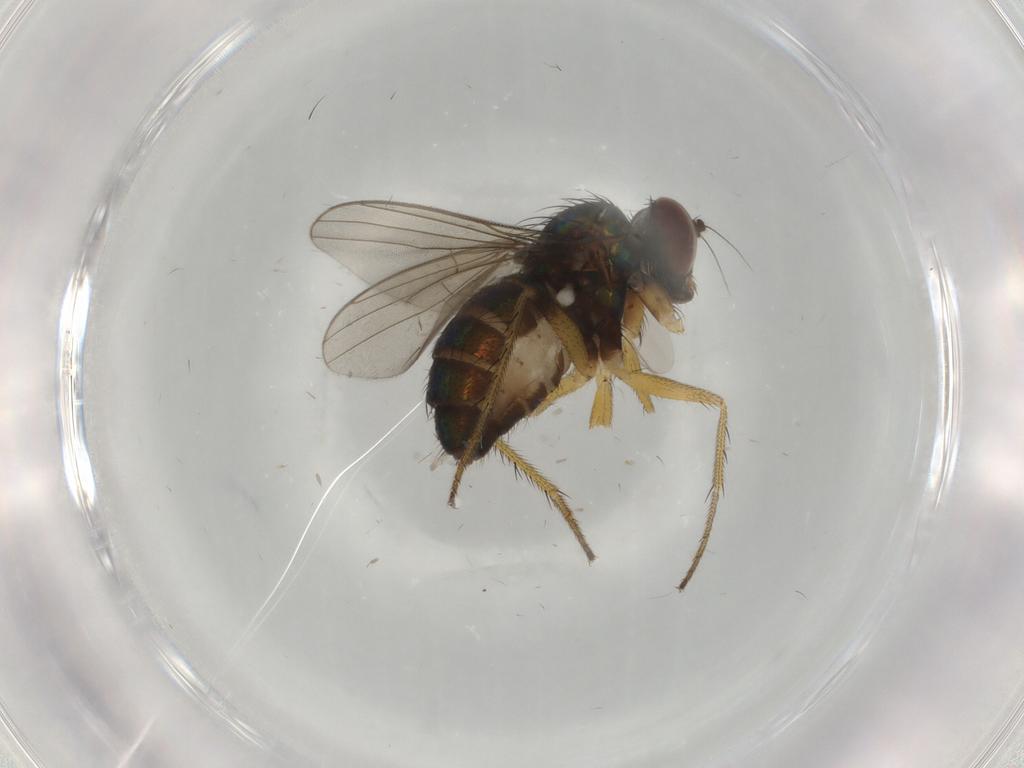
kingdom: Animalia
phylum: Arthropoda
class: Insecta
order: Diptera
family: Dolichopodidae
